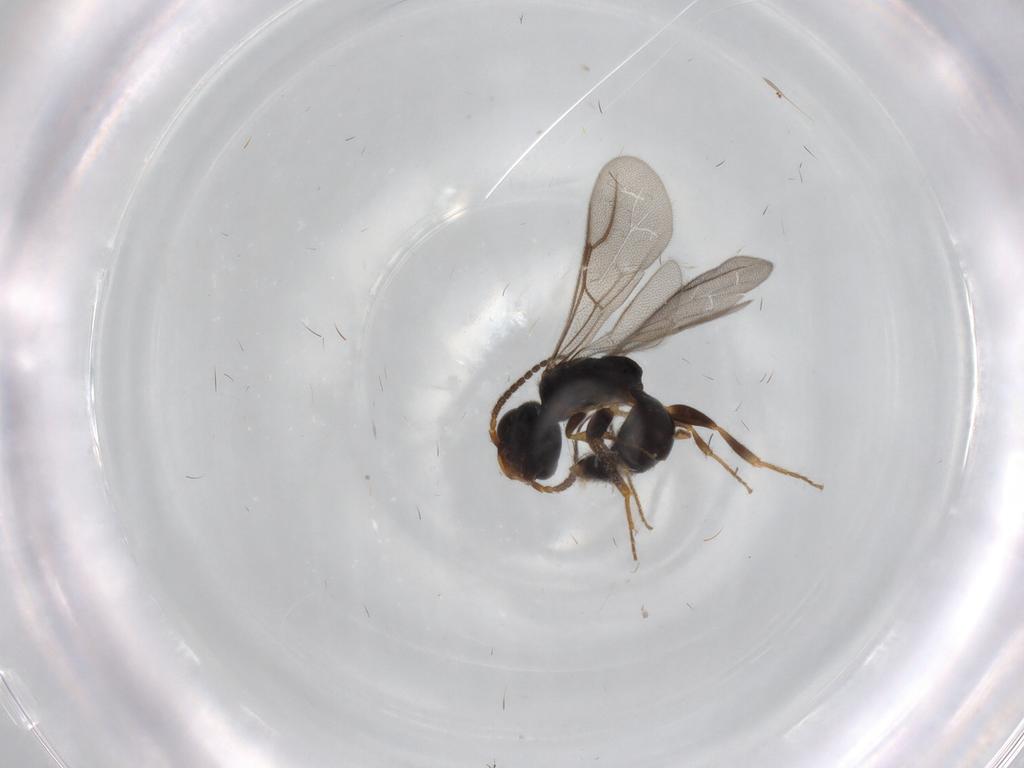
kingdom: Animalia
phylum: Arthropoda
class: Insecta
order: Hymenoptera
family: Bethylidae
